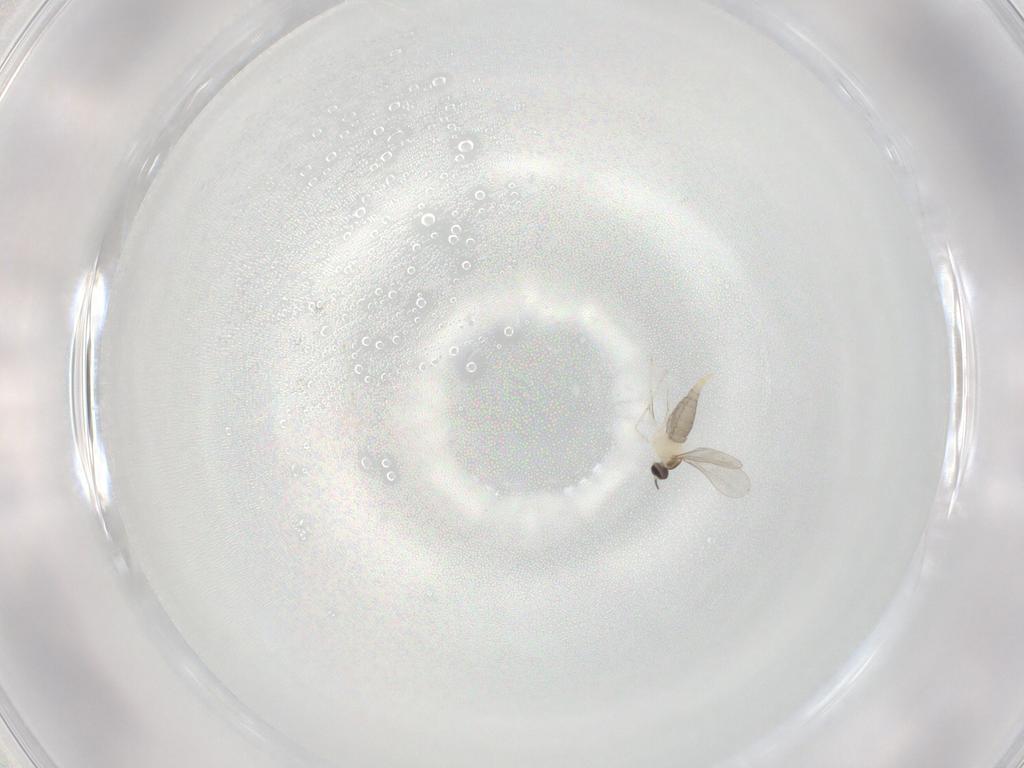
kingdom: Animalia
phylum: Arthropoda
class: Insecta
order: Diptera
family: Cecidomyiidae
